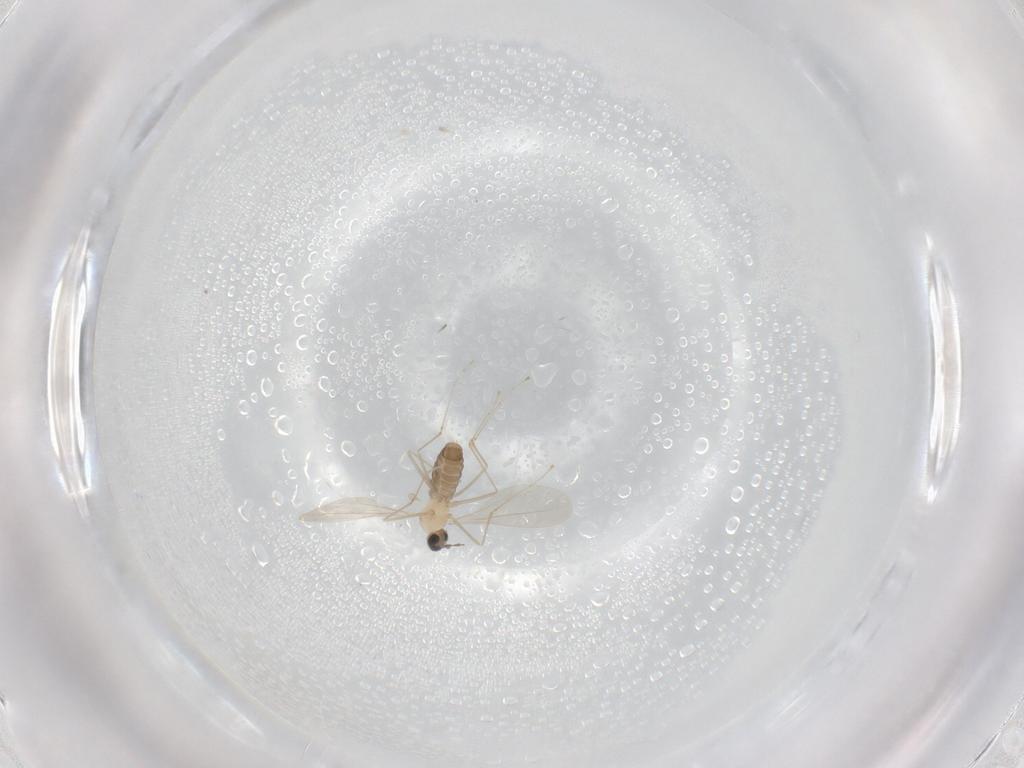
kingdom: Animalia
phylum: Arthropoda
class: Insecta
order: Diptera
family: Cecidomyiidae
